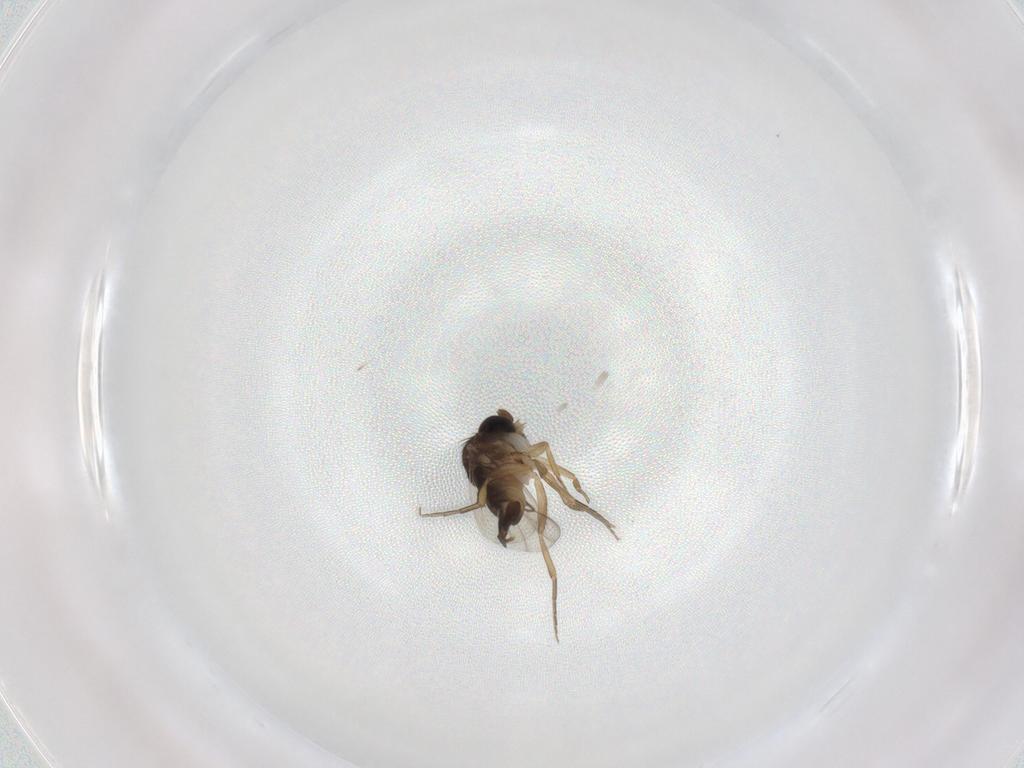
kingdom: Animalia
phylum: Arthropoda
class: Insecta
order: Diptera
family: Phoridae
